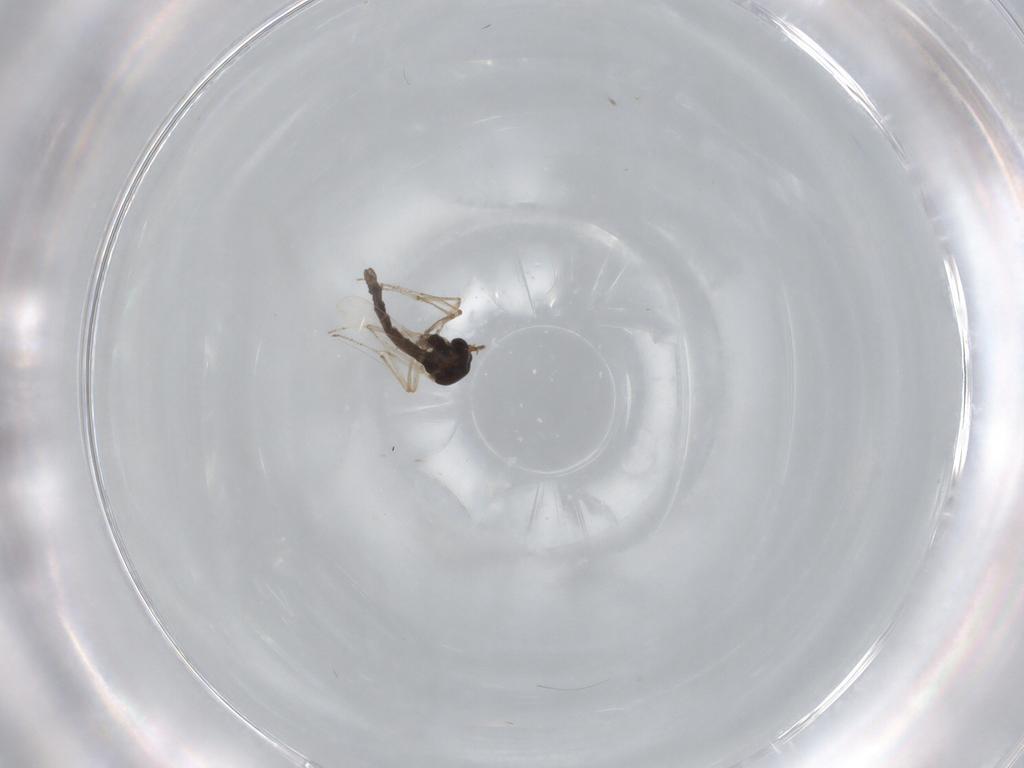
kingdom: Animalia
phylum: Arthropoda
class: Insecta
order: Diptera
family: Ceratopogonidae
